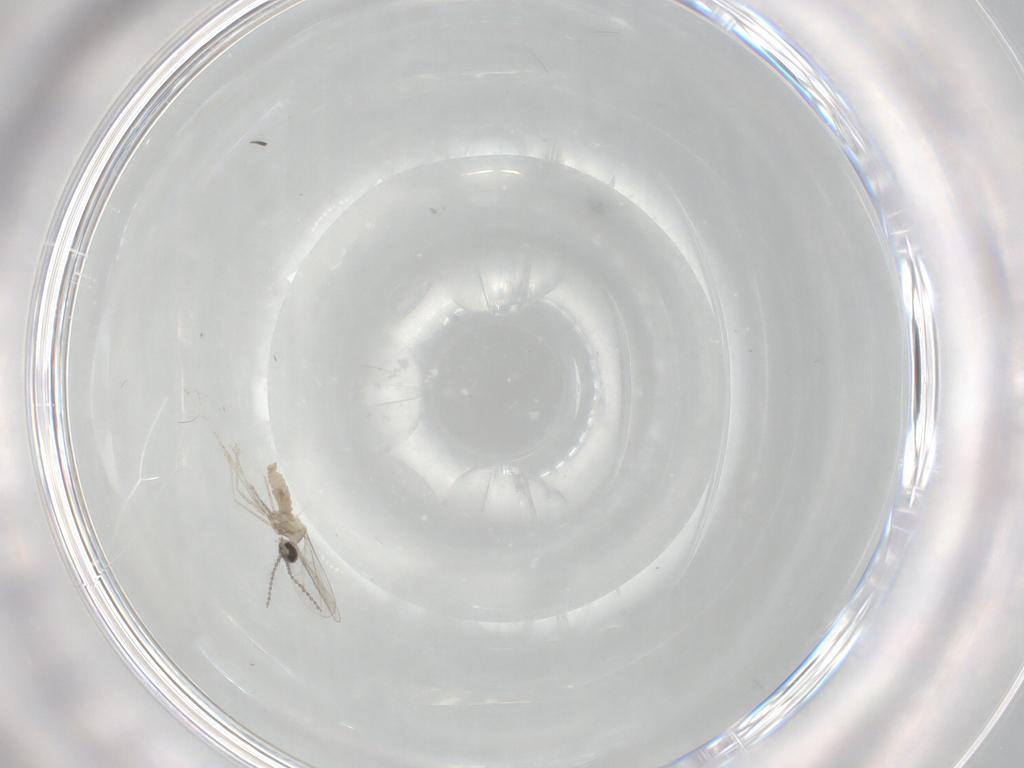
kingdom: Animalia
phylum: Arthropoda
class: Insecta
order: Diptera
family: Cecidomyiidae
